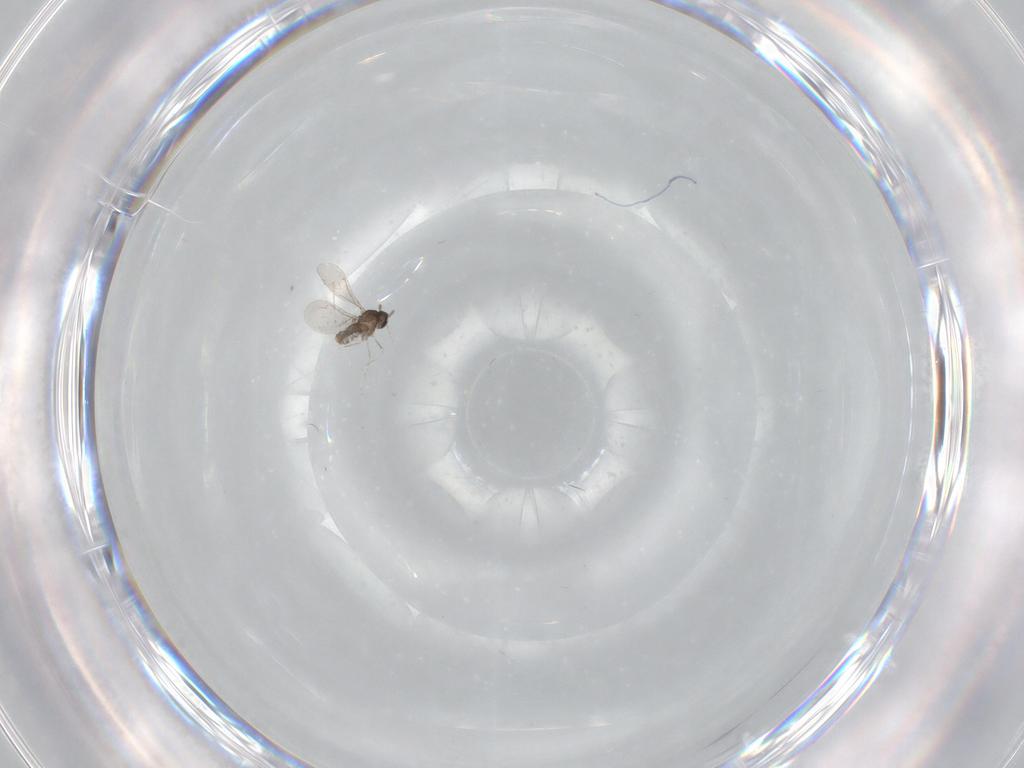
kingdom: Animalia
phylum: Arthropoda
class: Insecta
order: Diptera
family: Cecidomyiidae
